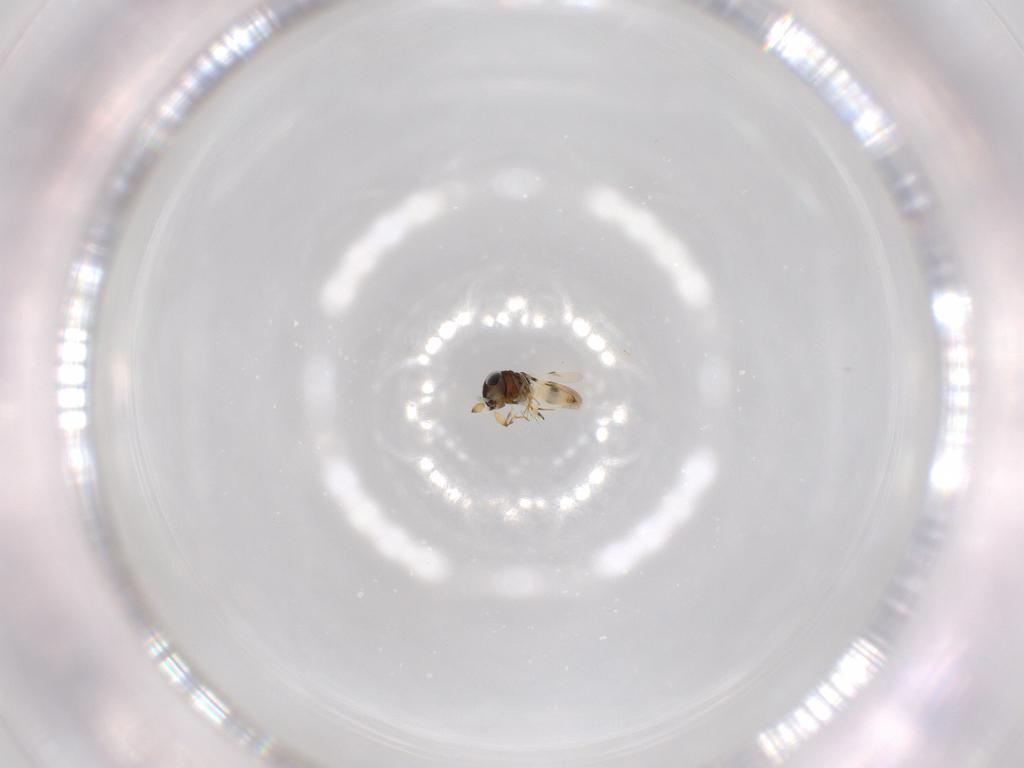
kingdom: Animalia
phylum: Arthropoda
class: Insecta
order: Hymenoptera
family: Scelionidae
